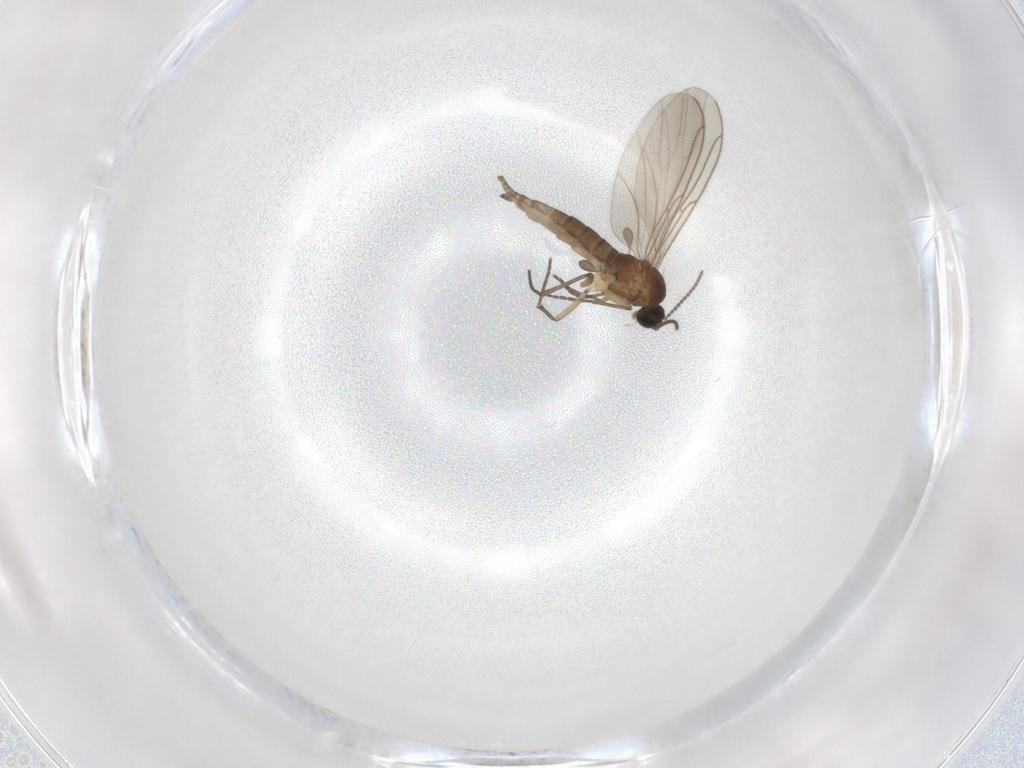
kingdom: Animalia
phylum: Arthropoda
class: Insecta
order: Diptera
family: Sciaridae
